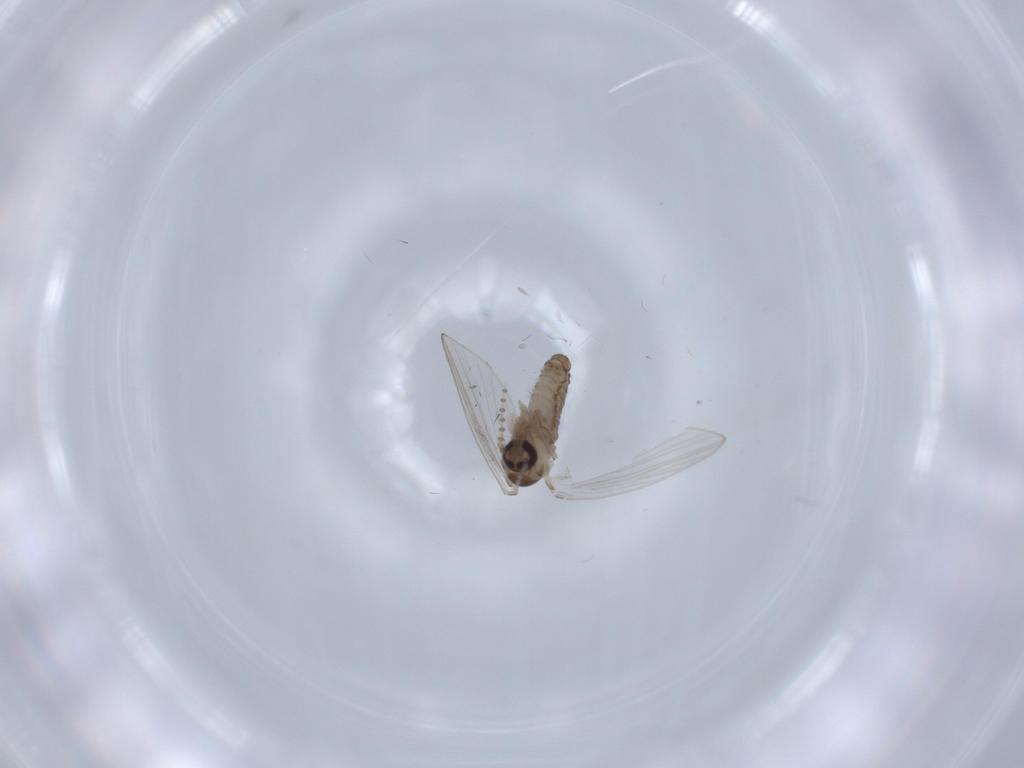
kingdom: Animalia
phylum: Arthropoda
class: Insecta
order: Diptera
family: Psychodidae
